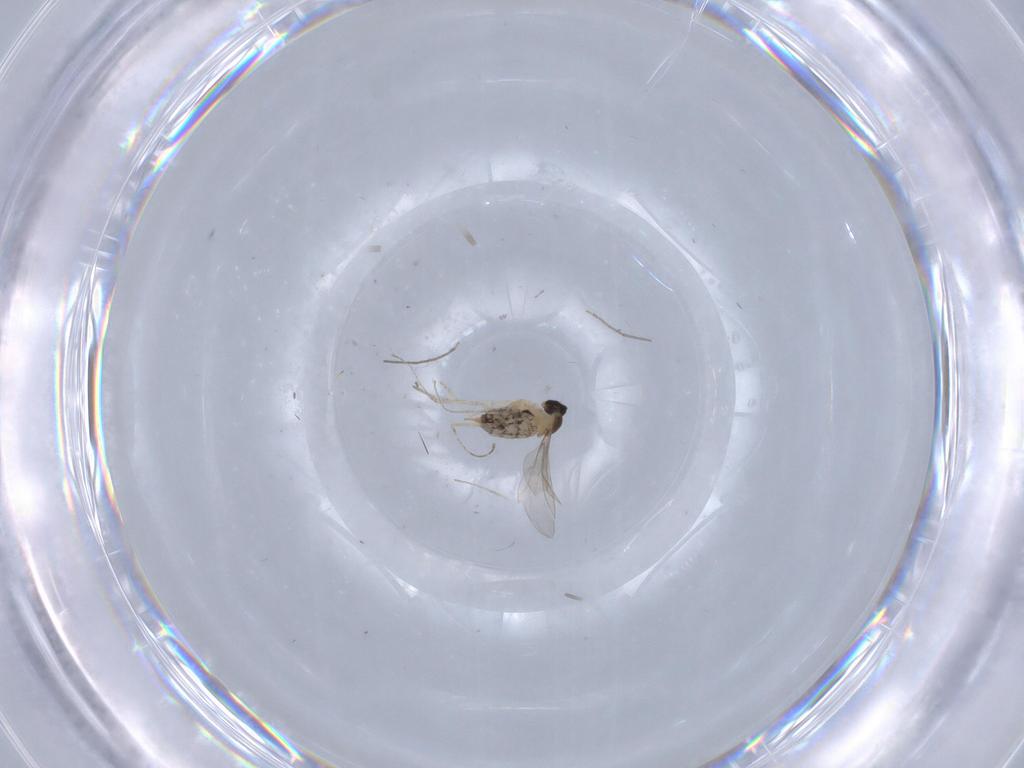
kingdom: Animalia
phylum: Arthropoda
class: Insecta
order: Diptera
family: Chironomidae
